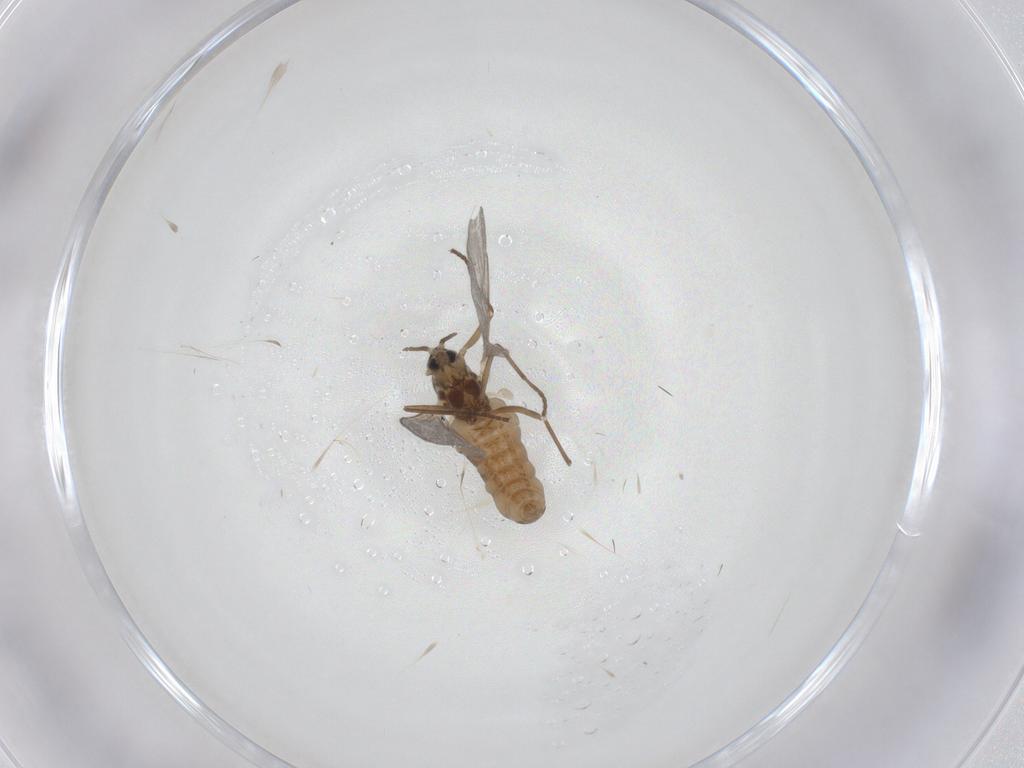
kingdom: Animalia
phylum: Arthropoda
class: Insecta
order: Diptera
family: Cecidomyiidae
